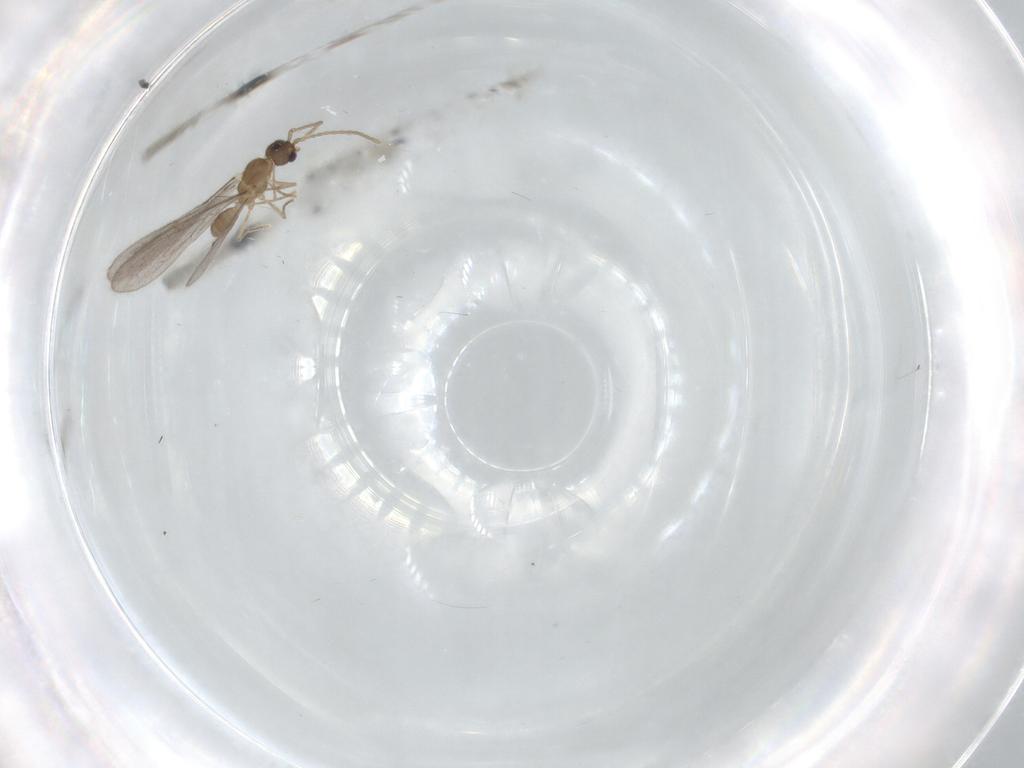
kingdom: Animalia
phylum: Arthropoda
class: Insecta
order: Hymenoptera
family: Formicidae
